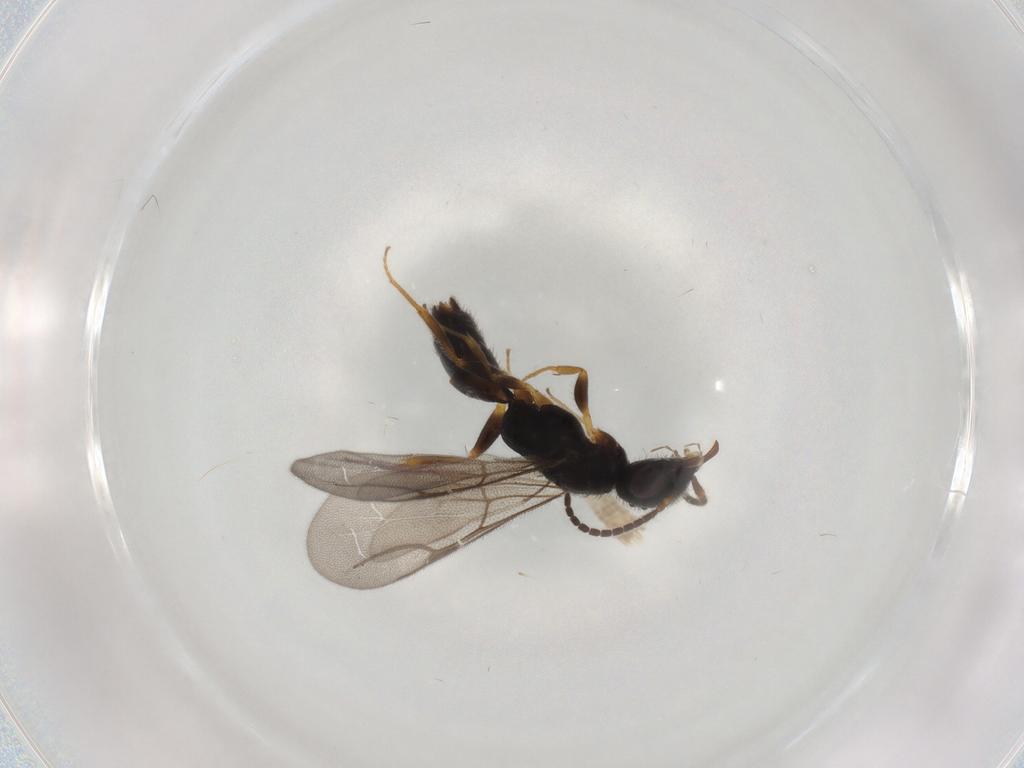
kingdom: Animalia
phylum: Arthropoda
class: Insecta
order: Hymenoptera
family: Bethylidae
